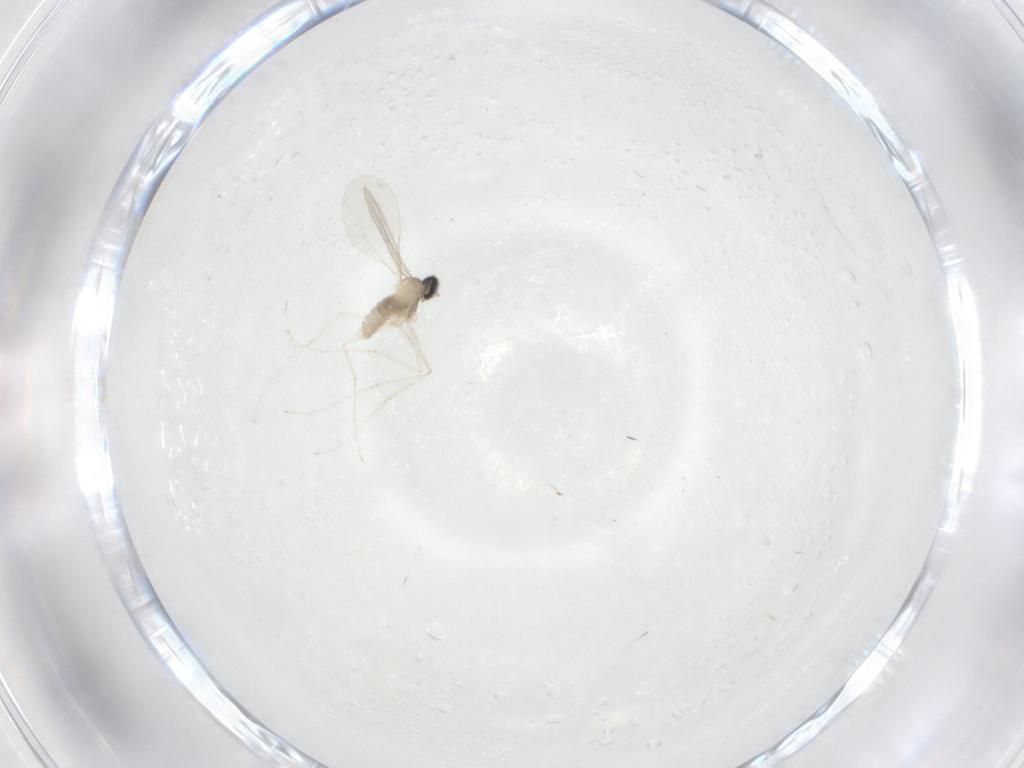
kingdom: Animalia
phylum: Arthropoda
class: Insecta
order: Diptera
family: Cecidomyiidae
